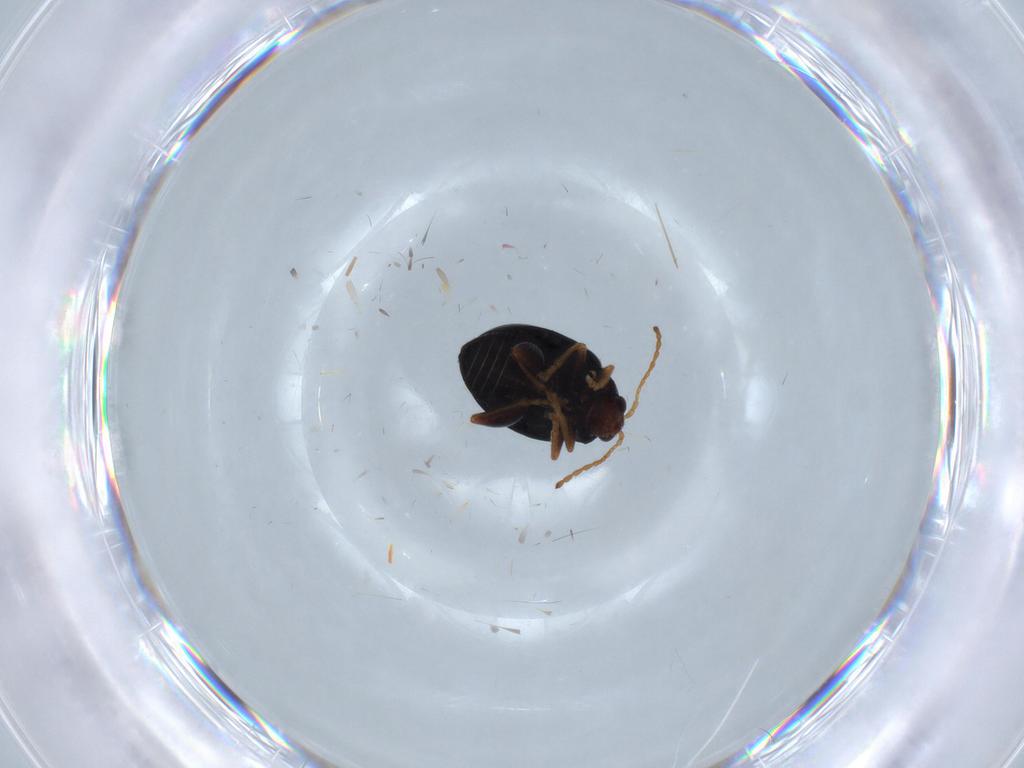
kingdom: Animalia
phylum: Arthropoda
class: Insecta
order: Coleoptera
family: Chrysomelidae
